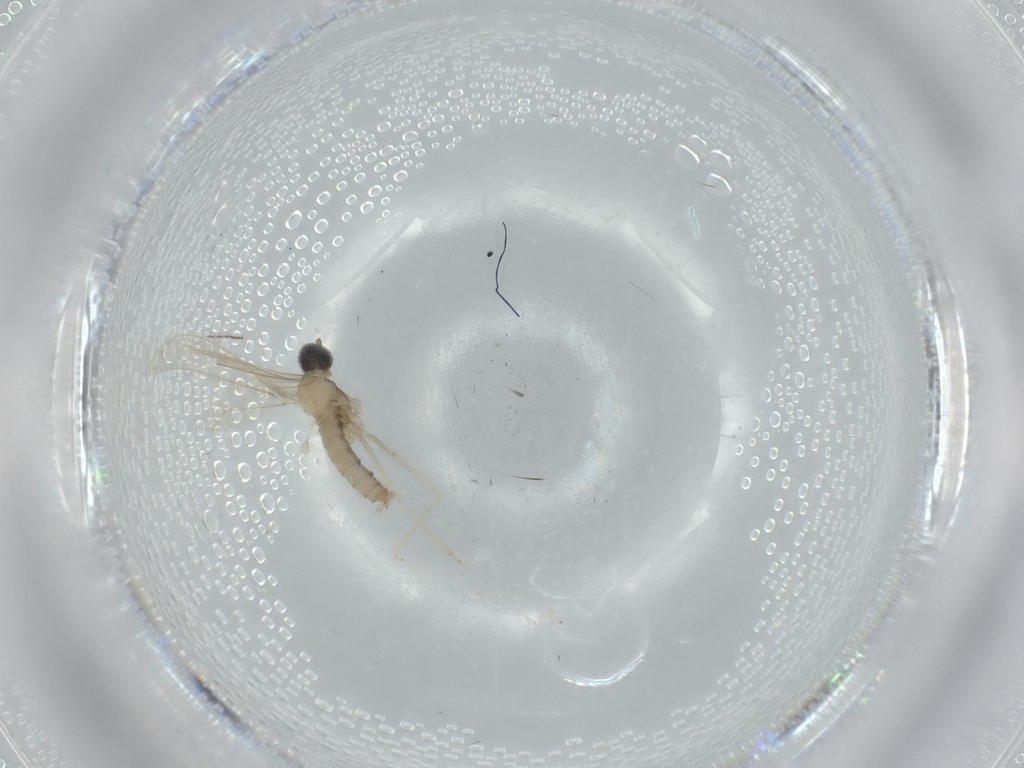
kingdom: Animalia
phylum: Arthropoda
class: Insecta
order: Diptera
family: Cecidomyiidae
